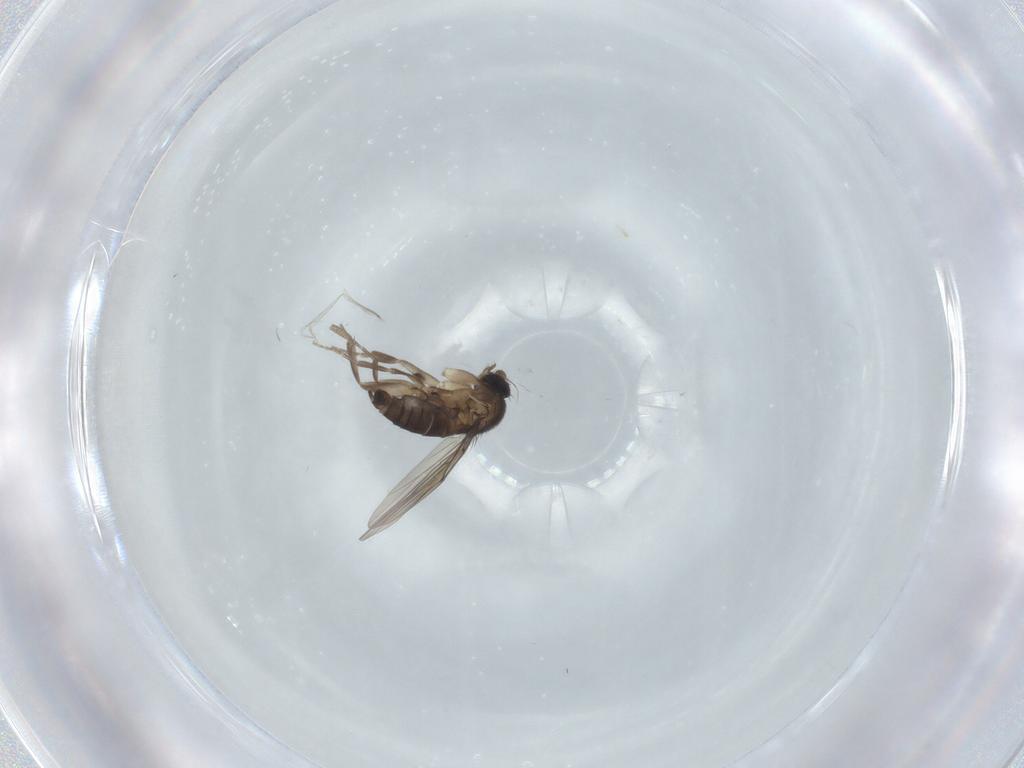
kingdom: Animalia
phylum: Arthropoda
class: Insecta
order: Diptera
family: Phoridae
